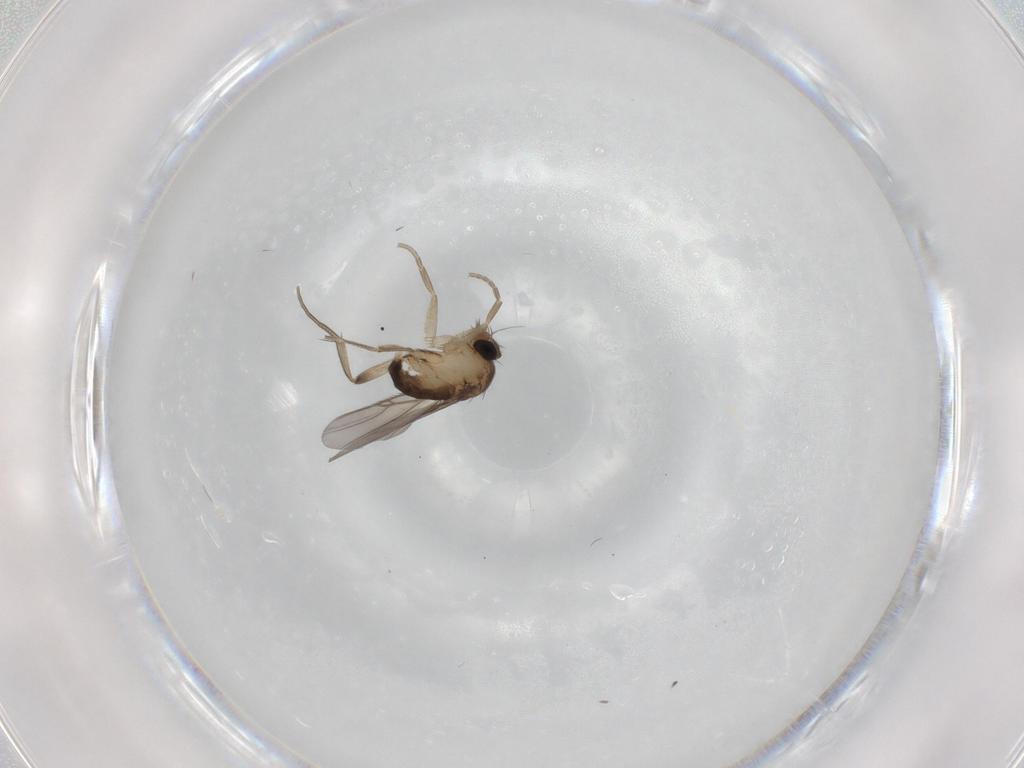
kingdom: Animalia
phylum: Arthropoda
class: Insecta
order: Diptera
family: Phoridae
